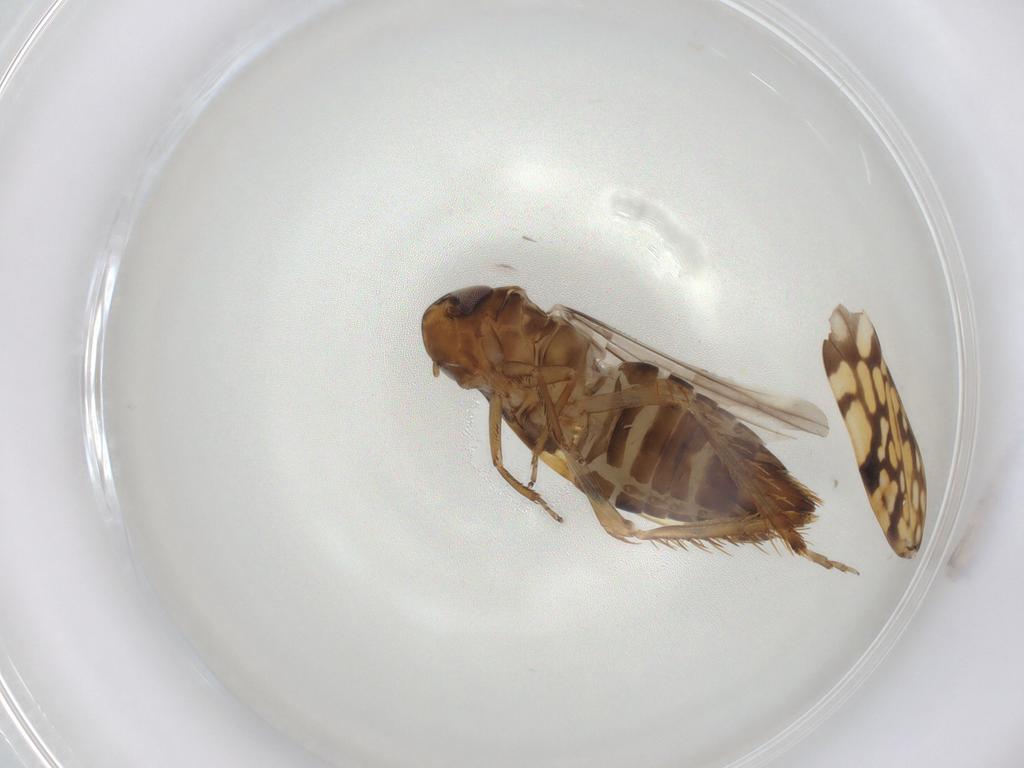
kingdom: Animalia
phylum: Arthropoda
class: Insecta
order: Hemiptera
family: Cicadellidae
